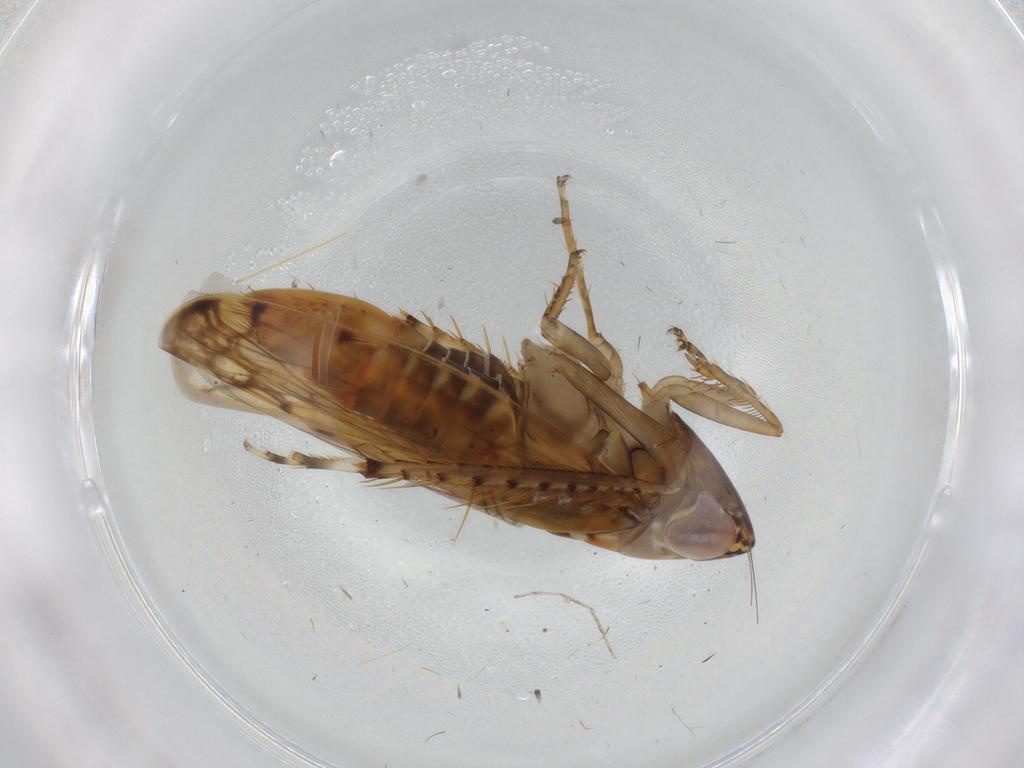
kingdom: Animalia
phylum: Arthropoda
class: Insecta
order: Hemiptera
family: Cicadellidae
